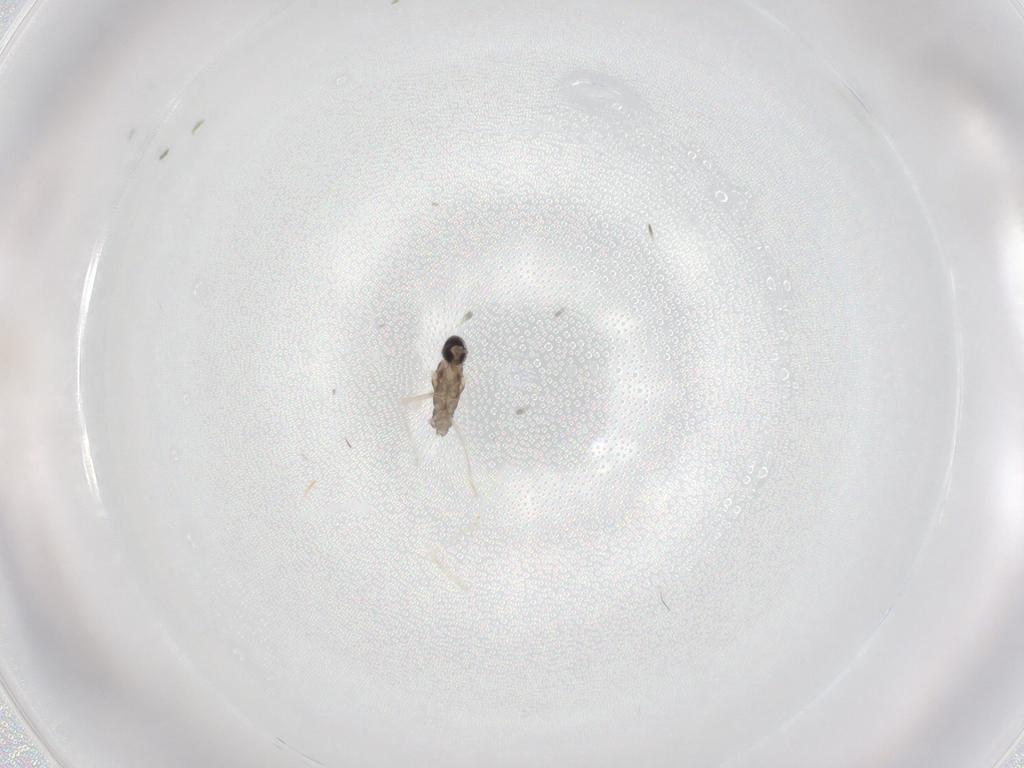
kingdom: Animalia
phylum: Arthropoda
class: Insecta
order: Diptera
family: Cecidomyiidae
